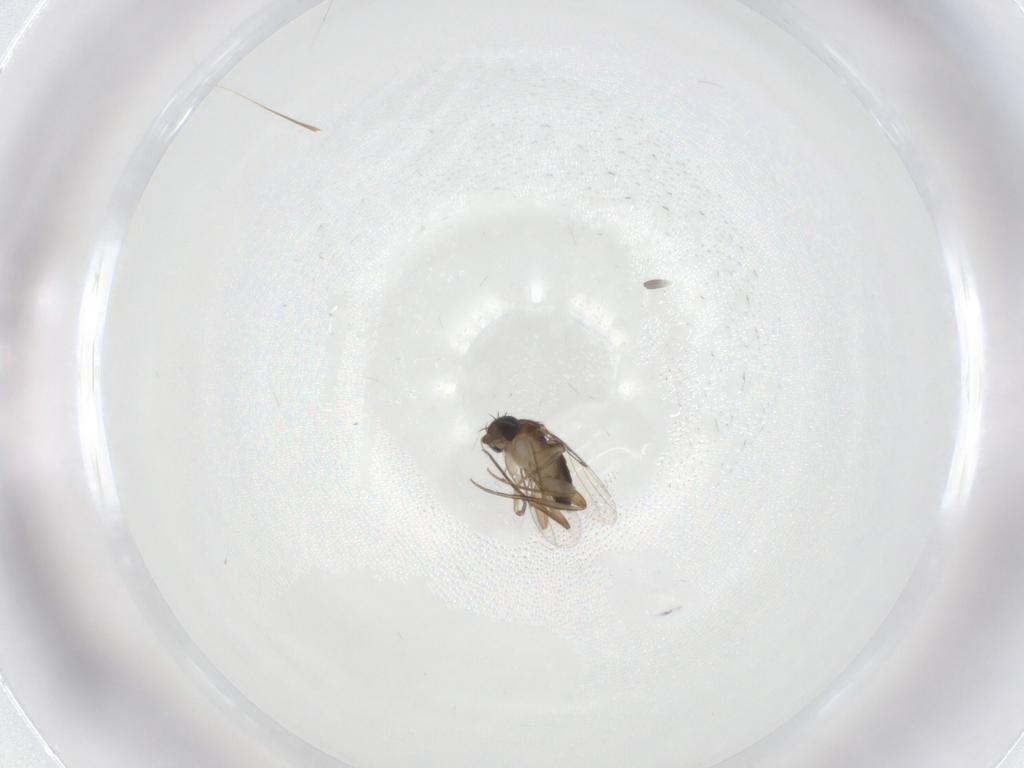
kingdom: Animalia
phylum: Arthropoda
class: Insecta
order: Diptera
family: Phoridae
